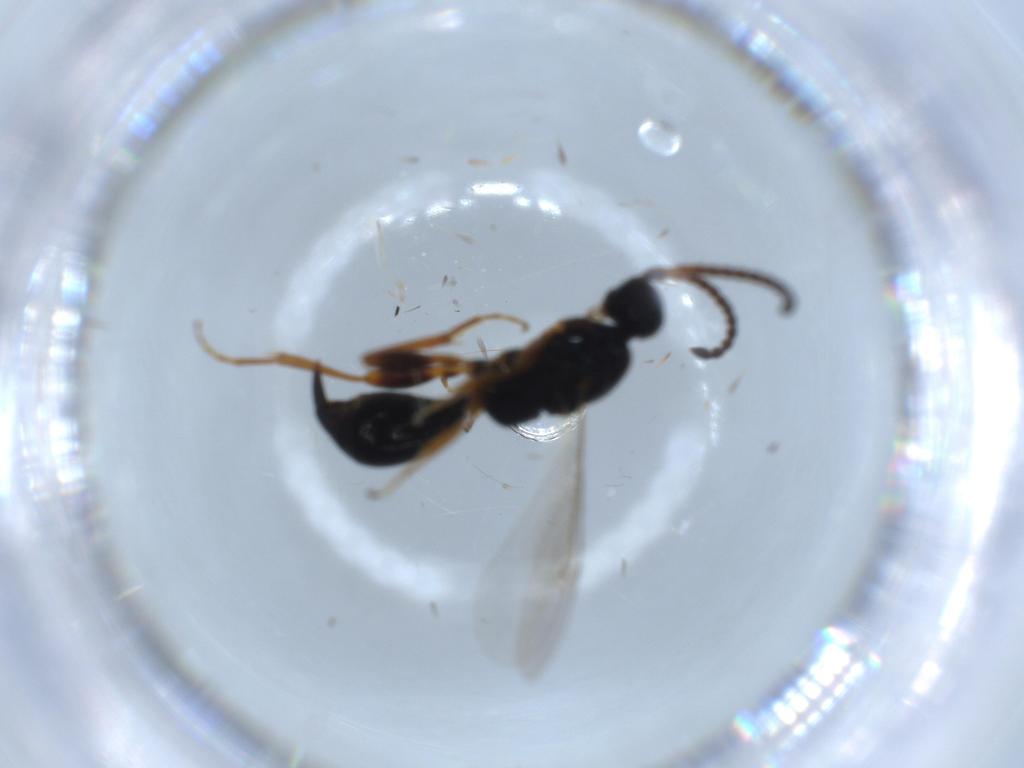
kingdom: Animalia
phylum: Arthropoda
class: Insecta
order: Hymenoptera
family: Proctotrupidae
